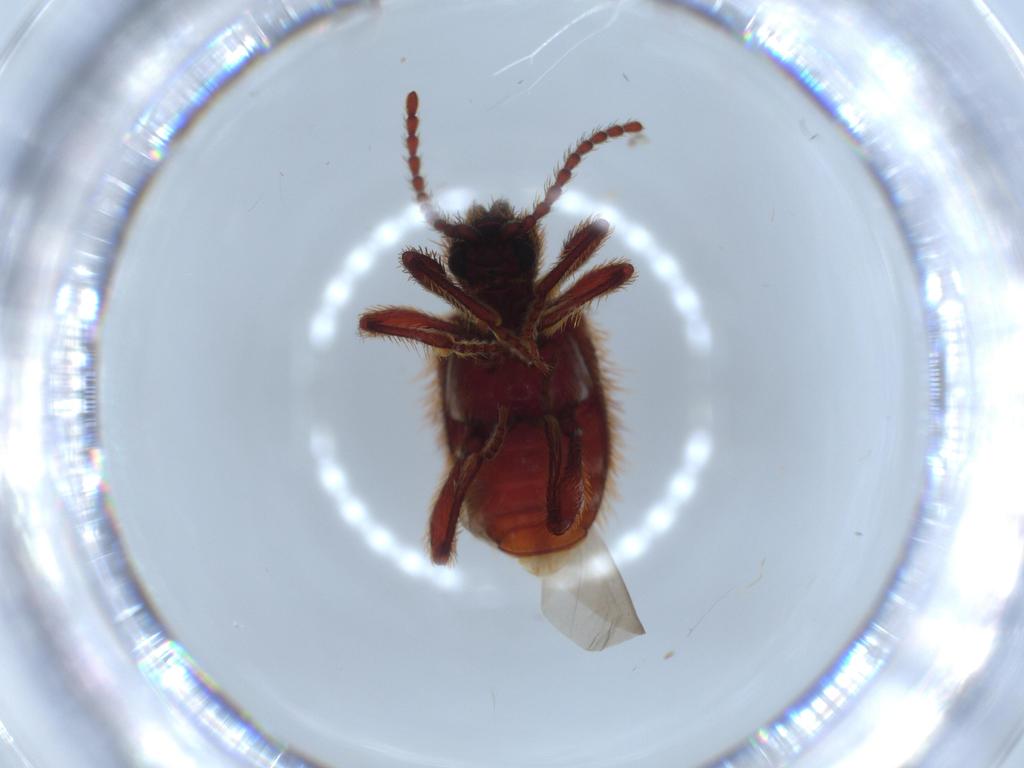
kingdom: Animalia
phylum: Arthropoda
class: Insecta
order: Coleoptera
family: Ptinidae
